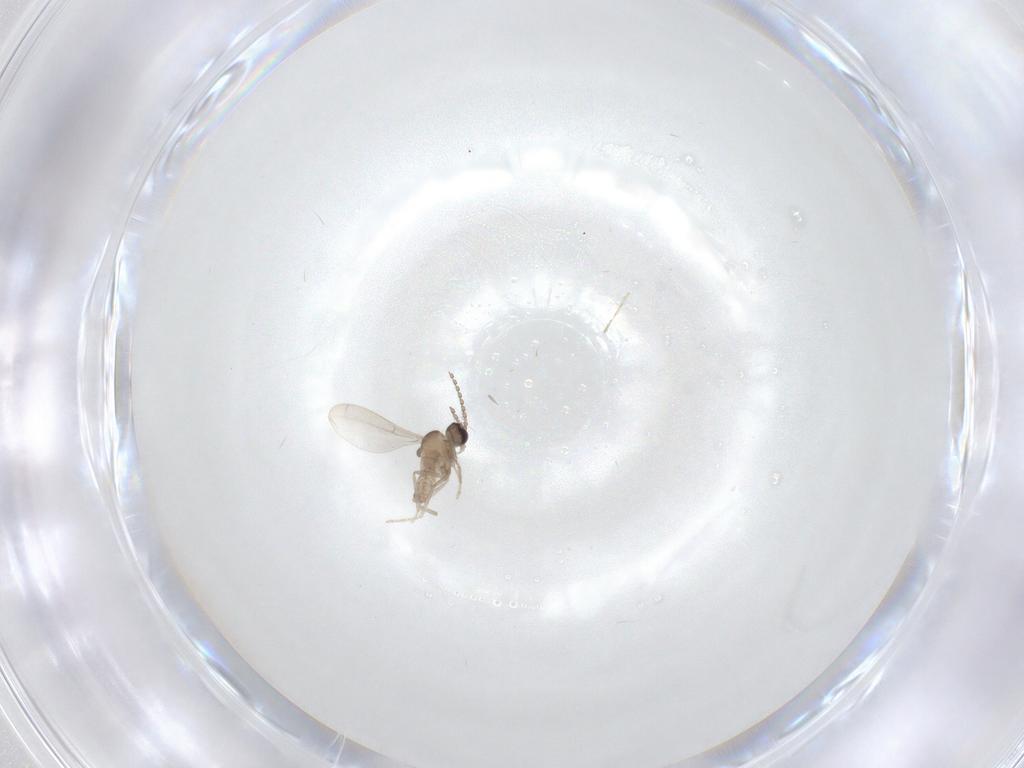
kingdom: Animalia
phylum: Arthropoda
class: Insecta
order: Diptera
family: Cecidomyiidae
